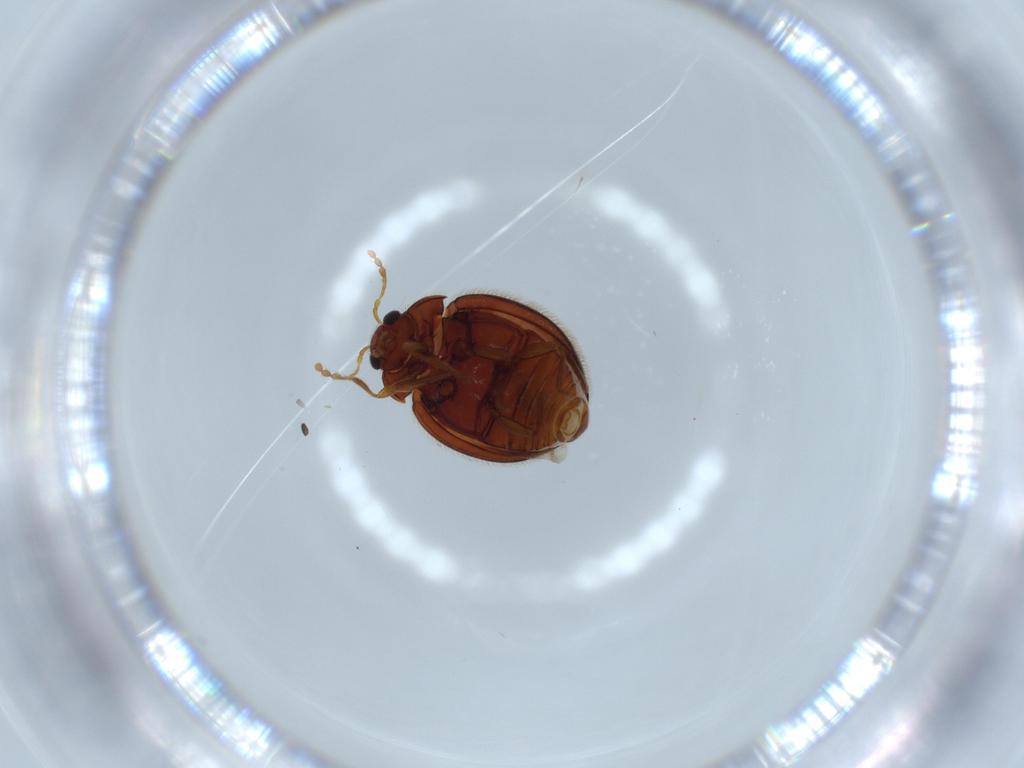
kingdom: Animalia
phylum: Arthropoda
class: Insecta
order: Coleoptera
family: Anamorphidae
